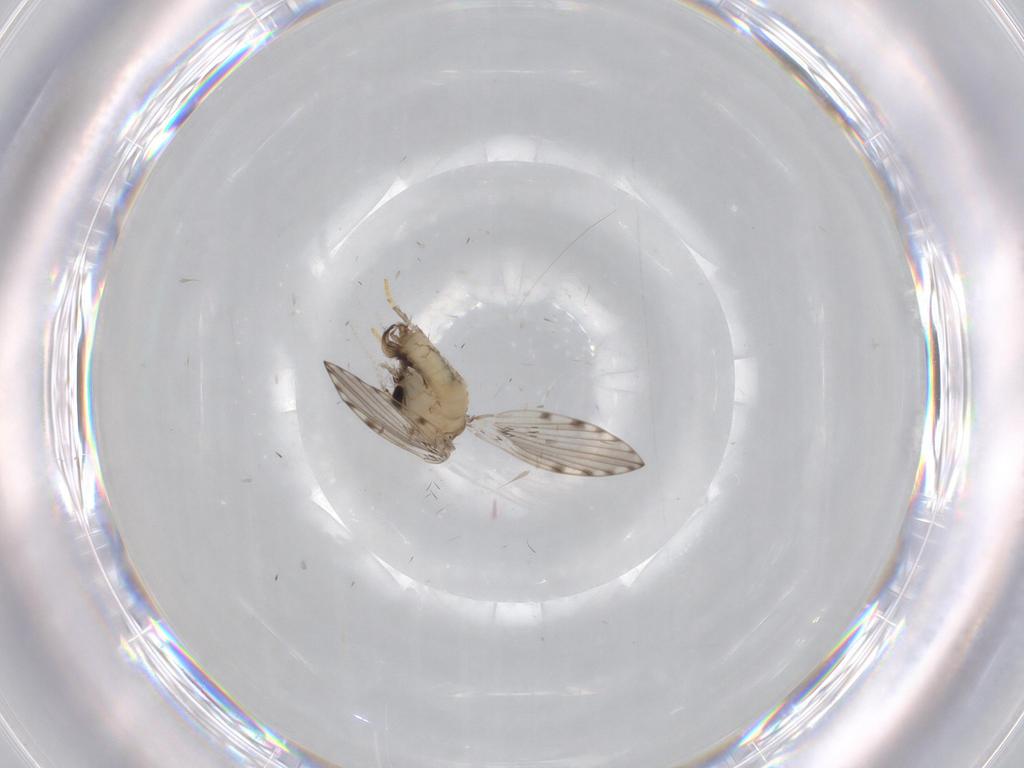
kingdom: Animalia
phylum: Arthropoda
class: Insecta
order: Diptera
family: Psychodidae
